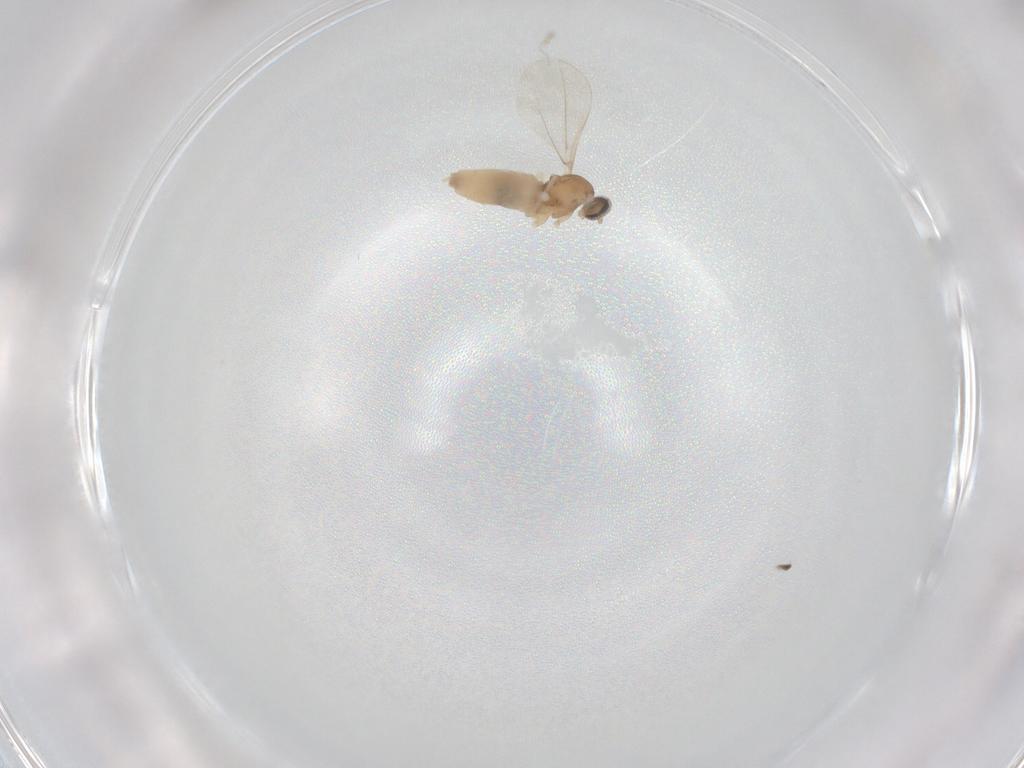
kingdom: Animalia
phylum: Arthropoda
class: Insecta
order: Diptera
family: Cecidomyiidae
